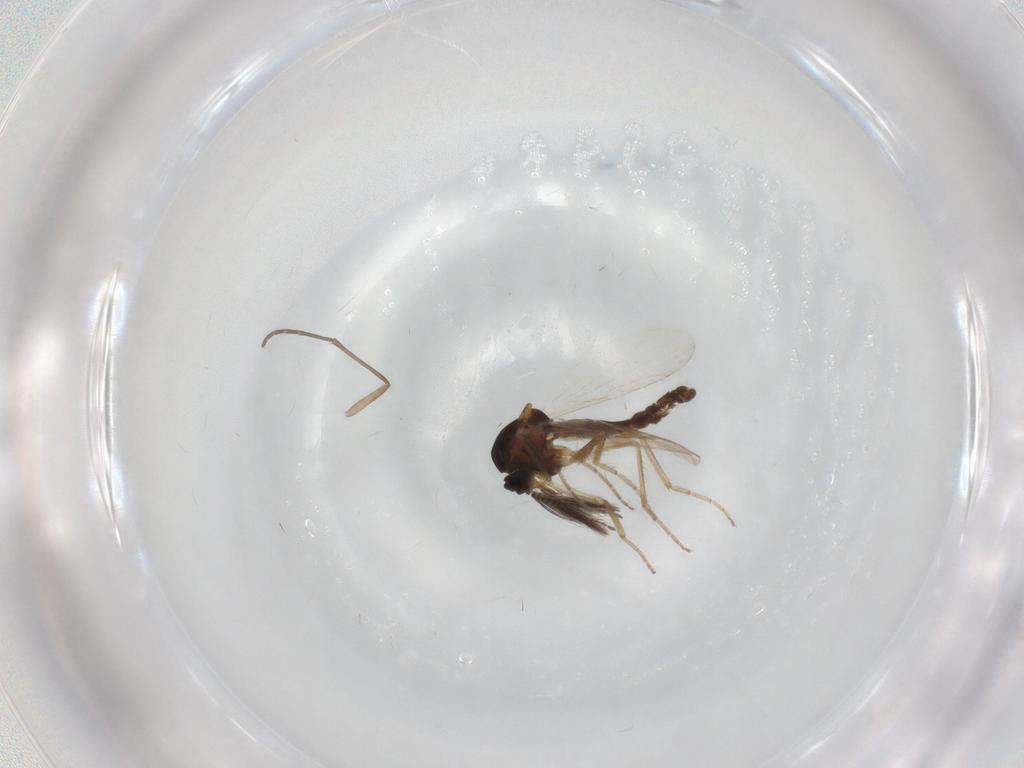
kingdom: Animalia
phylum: Arthropoda
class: Insecta
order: Diptera
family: Ceratopogonidae
